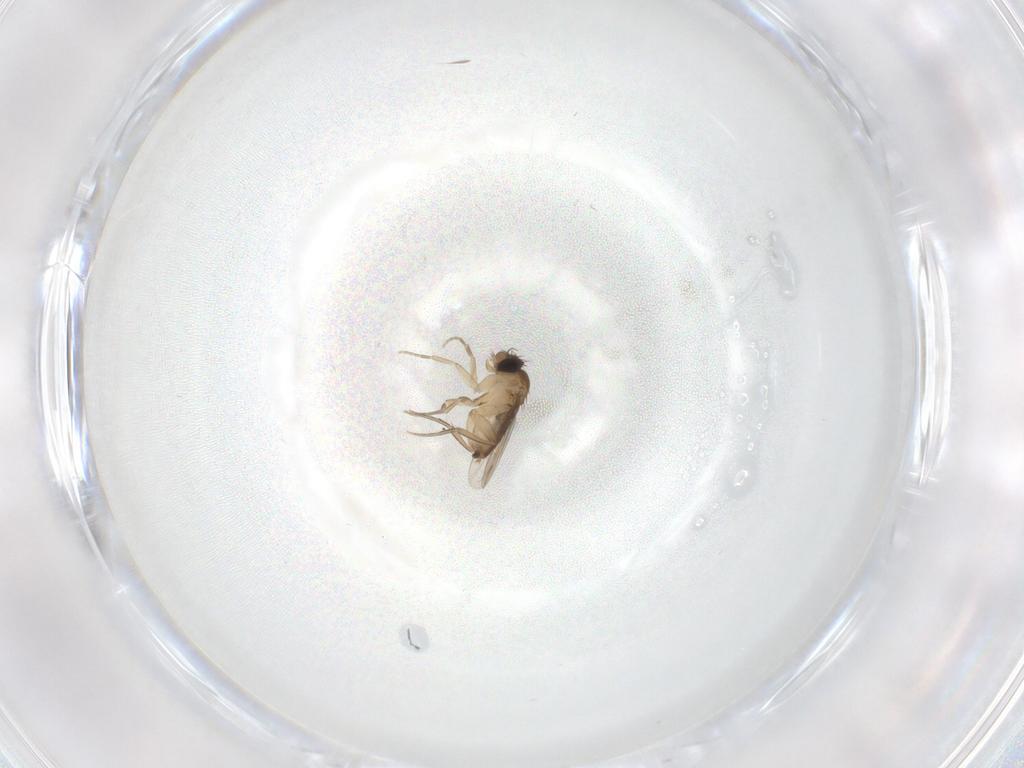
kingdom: Animalia
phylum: Arthropoda
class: Insecta
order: Diptera
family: Phoridae
